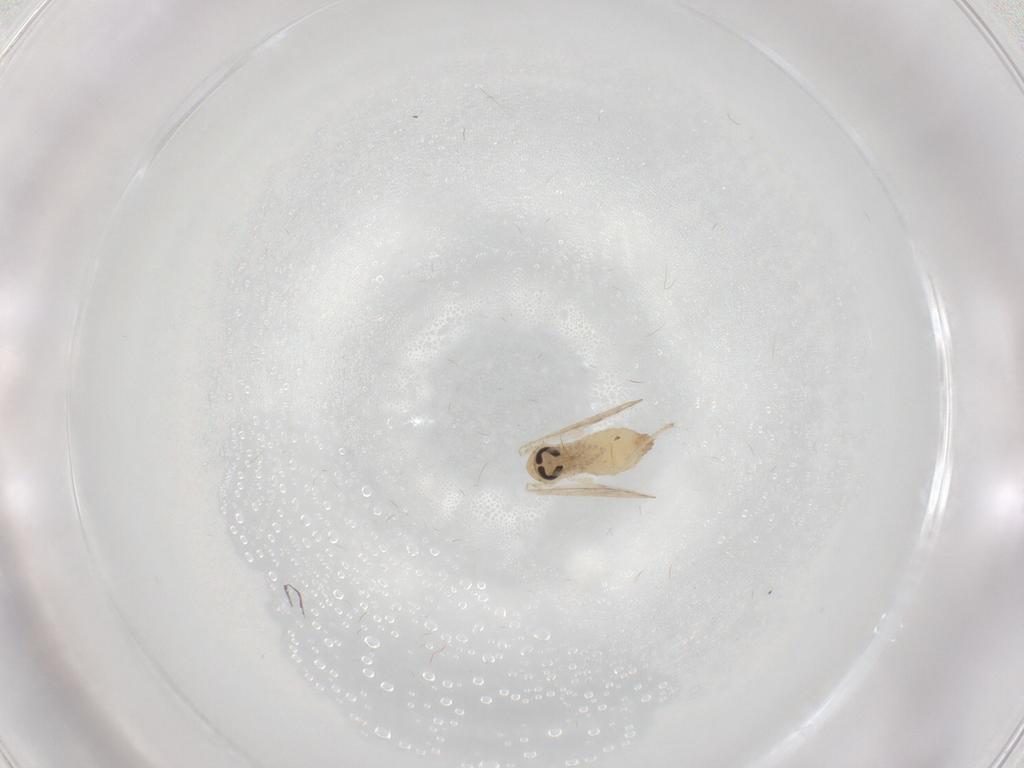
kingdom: Animalia
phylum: Arthropoda
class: Insecta
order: Diptera
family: Psychodidae
